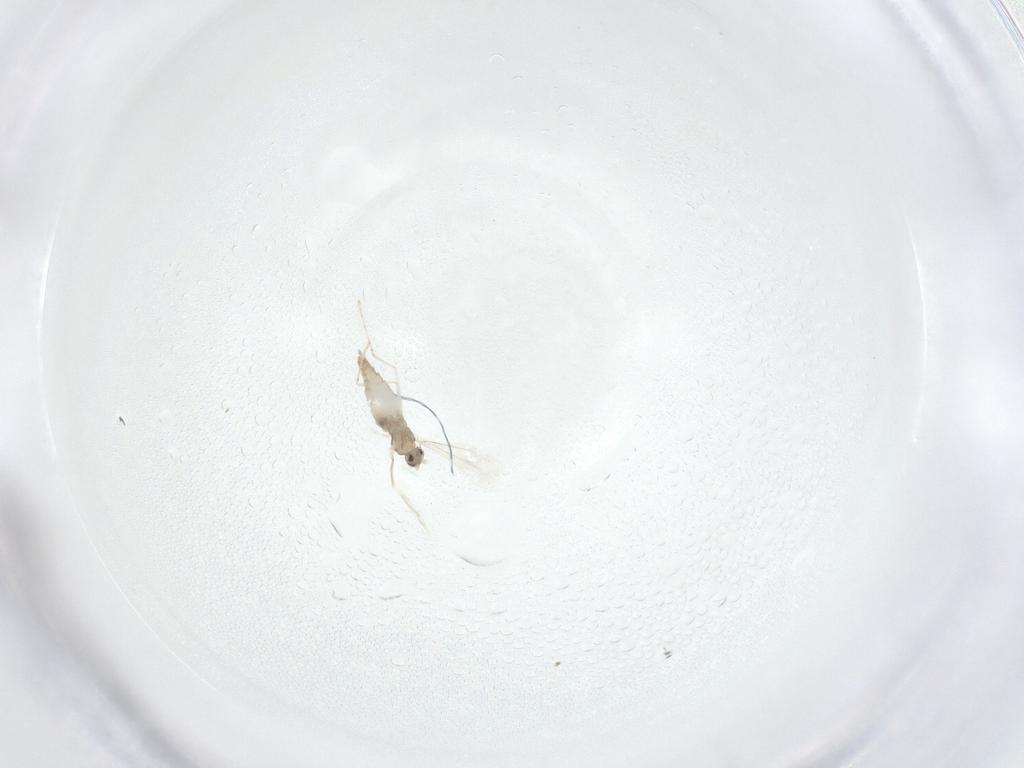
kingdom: Animalia
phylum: Arthropoda
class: Insecta
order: Diptera
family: Cecidomyiidae
